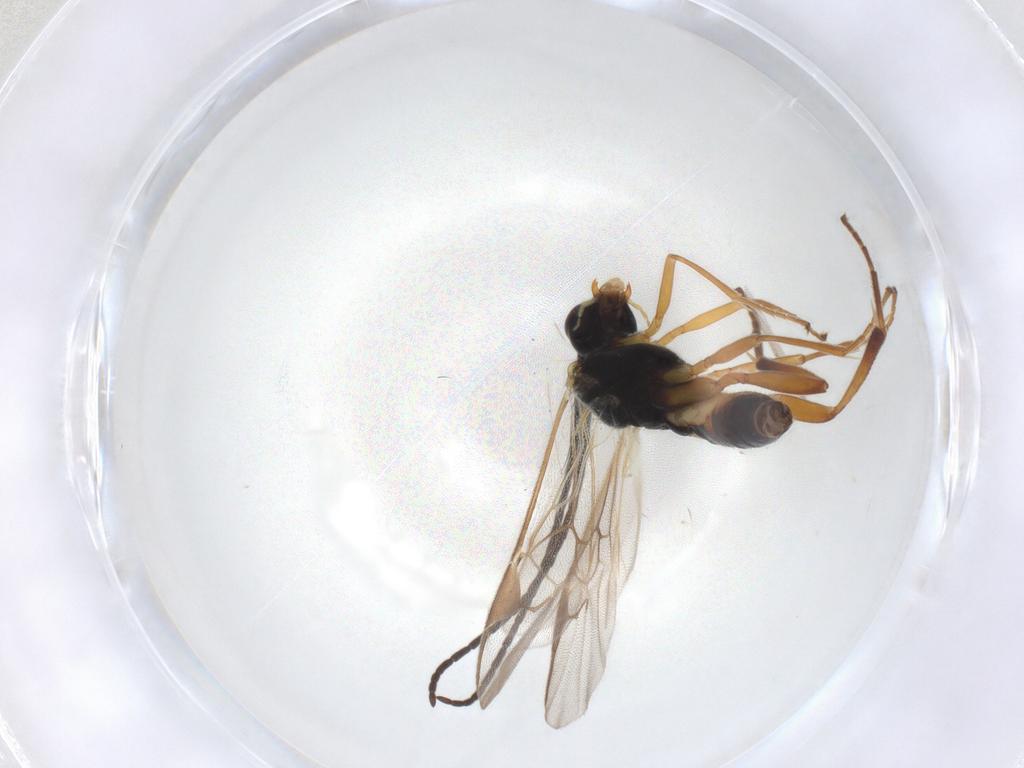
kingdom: Animalia
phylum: Arthropoda
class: Insecta
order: Hymenoptera
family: Braconidae
